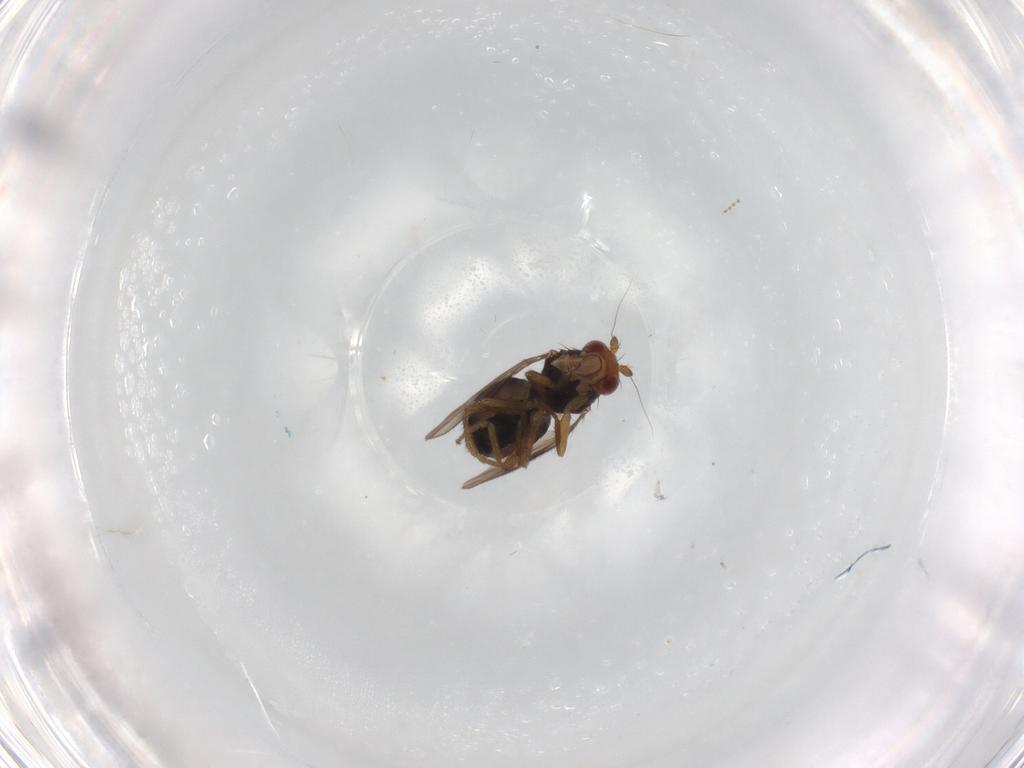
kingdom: Animalia
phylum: Arthropoda
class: Insecta
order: Diptera
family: Sphaeroceridae
